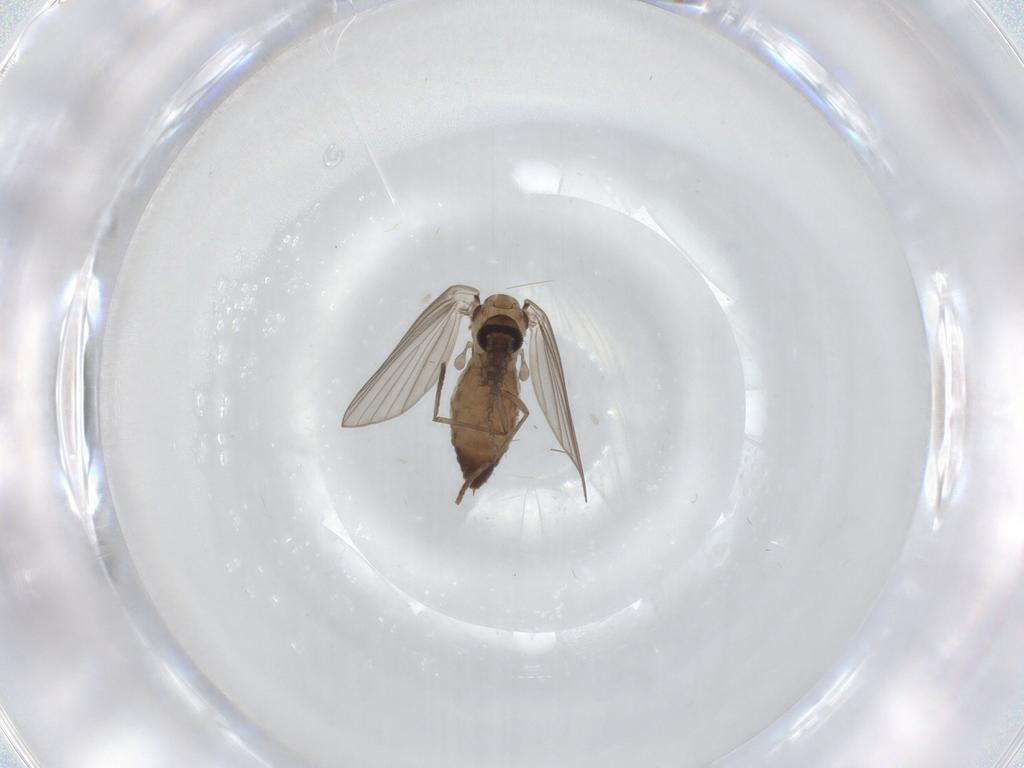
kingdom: Animalia
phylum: Arthropoda
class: Insecta
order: Diptera
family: Psychodidae
